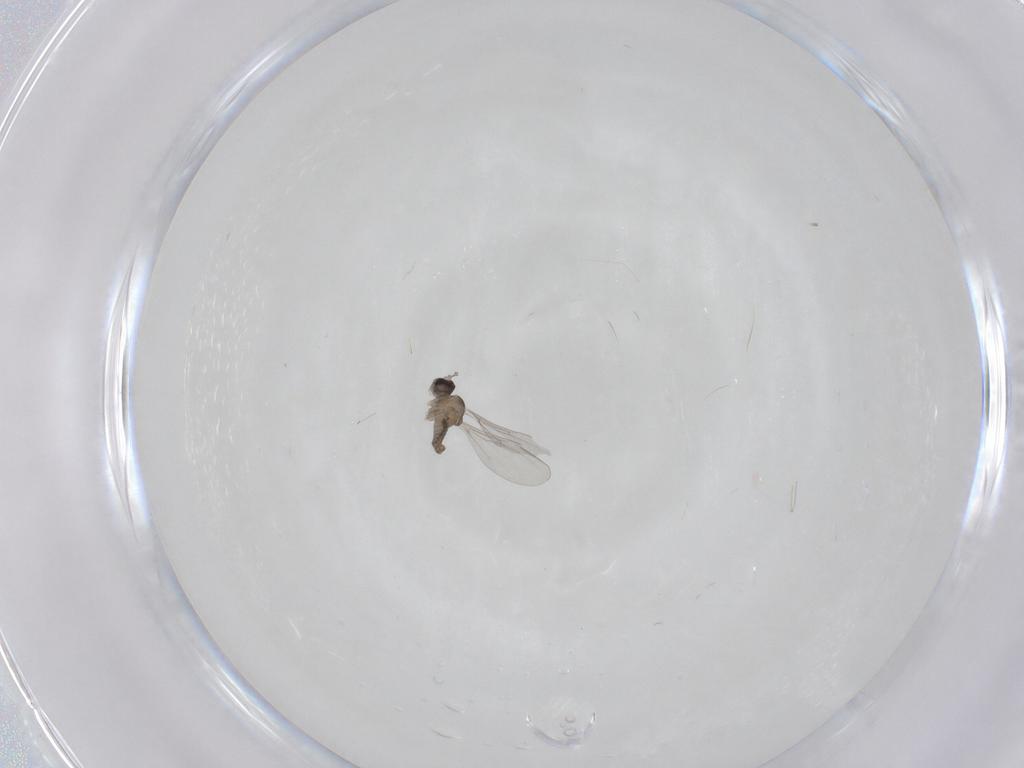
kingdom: Animalia
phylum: Arthropoda
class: Insecta
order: Diptera
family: Cecidomyiidae
